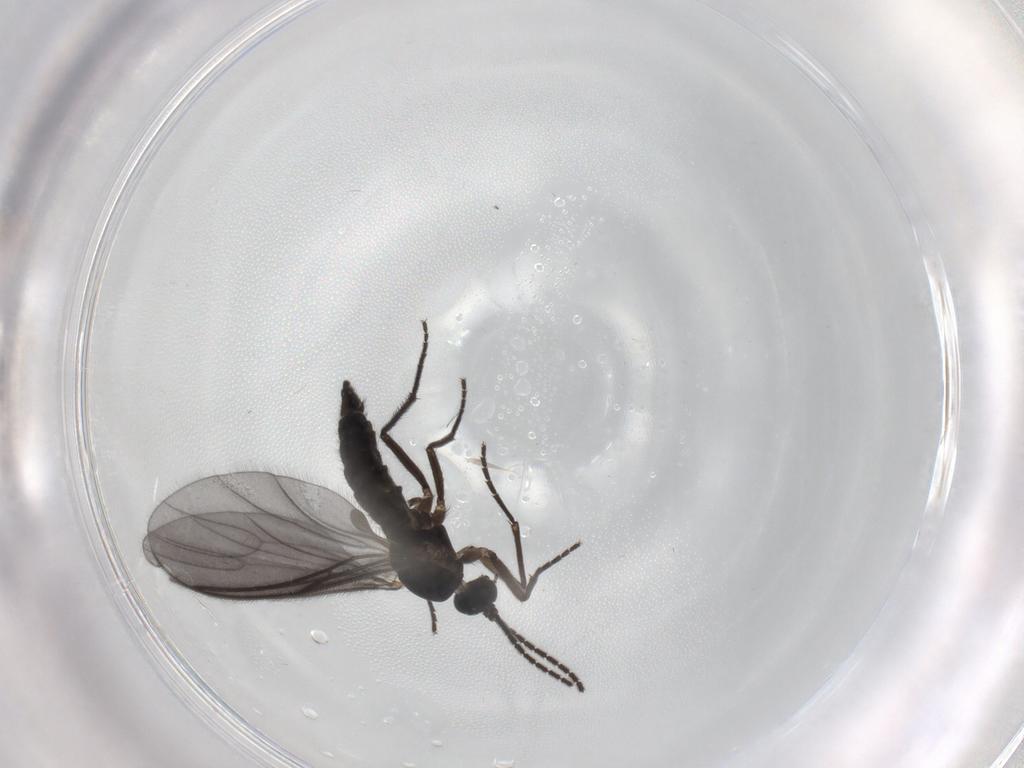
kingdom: Animalia
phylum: Arthropoda
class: Insecta
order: Diptera
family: Sciaridae
